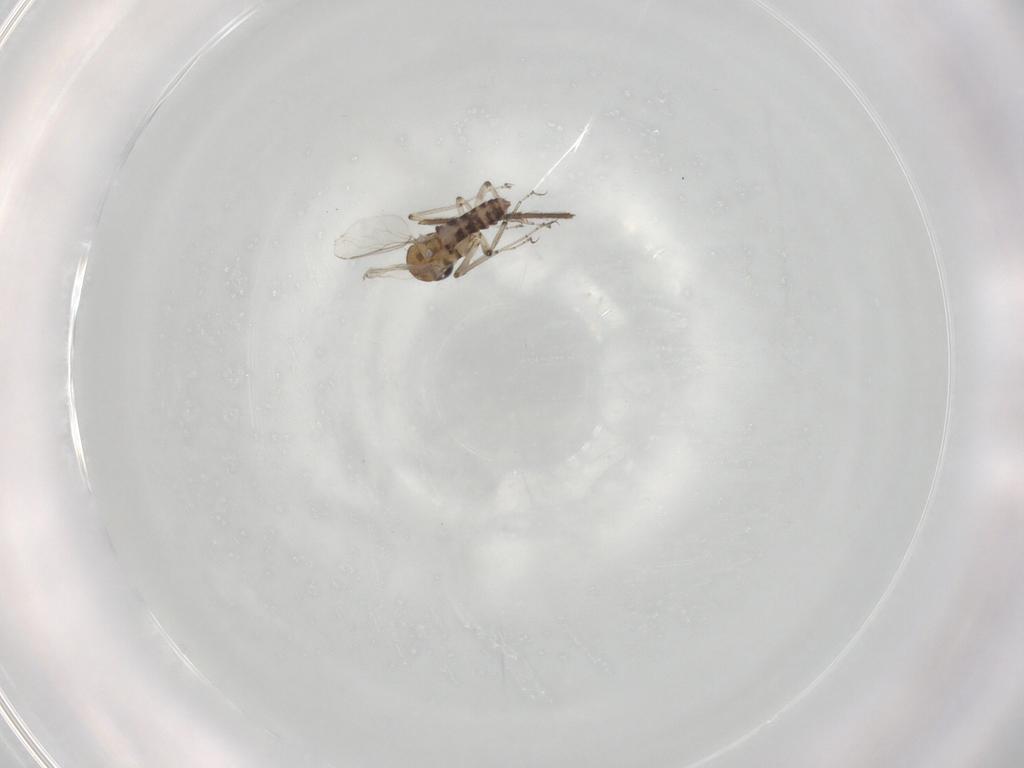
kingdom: Animalia
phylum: Arthropoda
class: Insecta
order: Diptera
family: Ceratopogonidae
